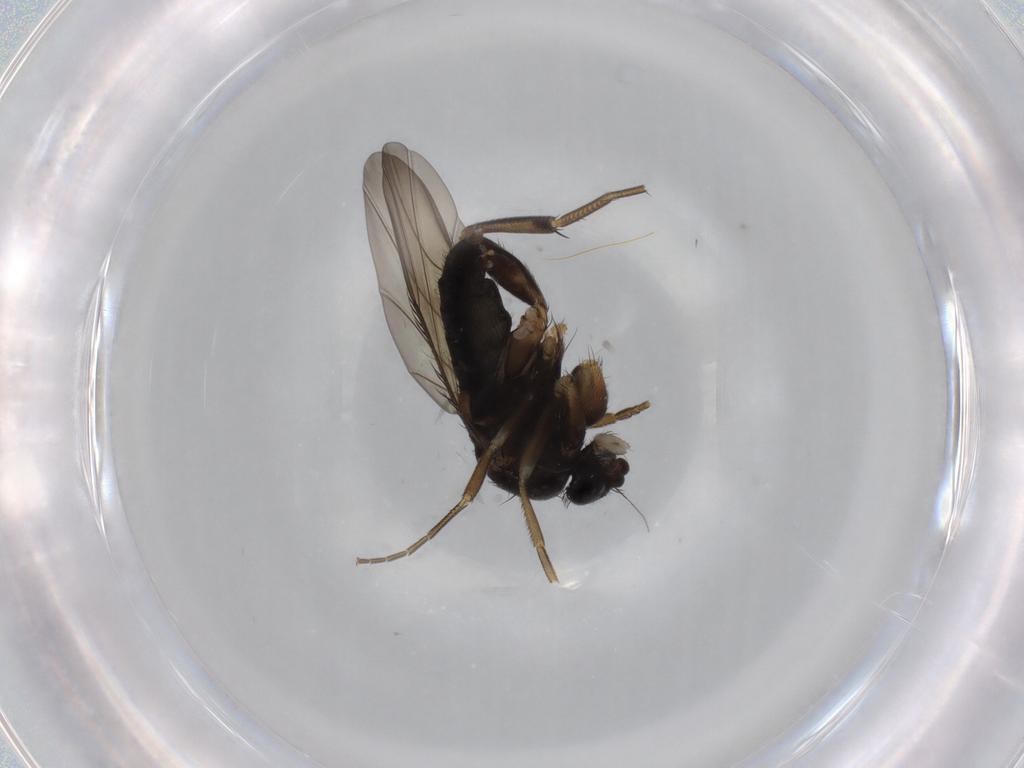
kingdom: Animalia
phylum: Arthropoda
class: Insecta
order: Diptera
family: Phoridae
